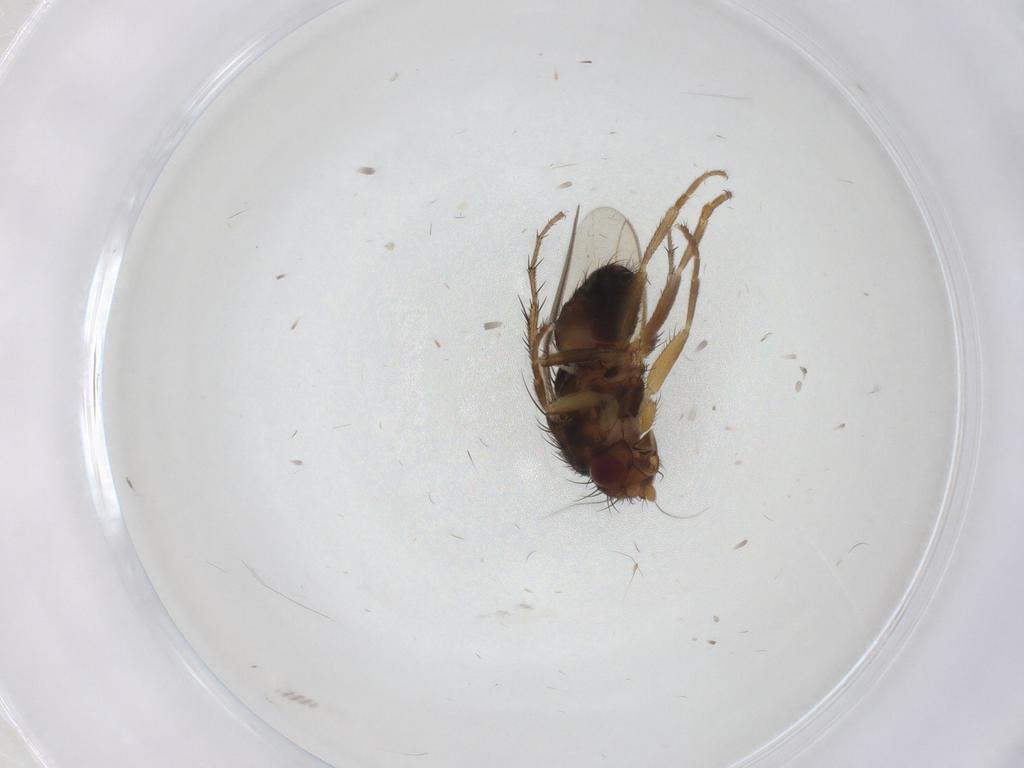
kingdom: Animalia
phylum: Arthropoda
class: Insecta
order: Diptera
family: Sphaeroceridae
